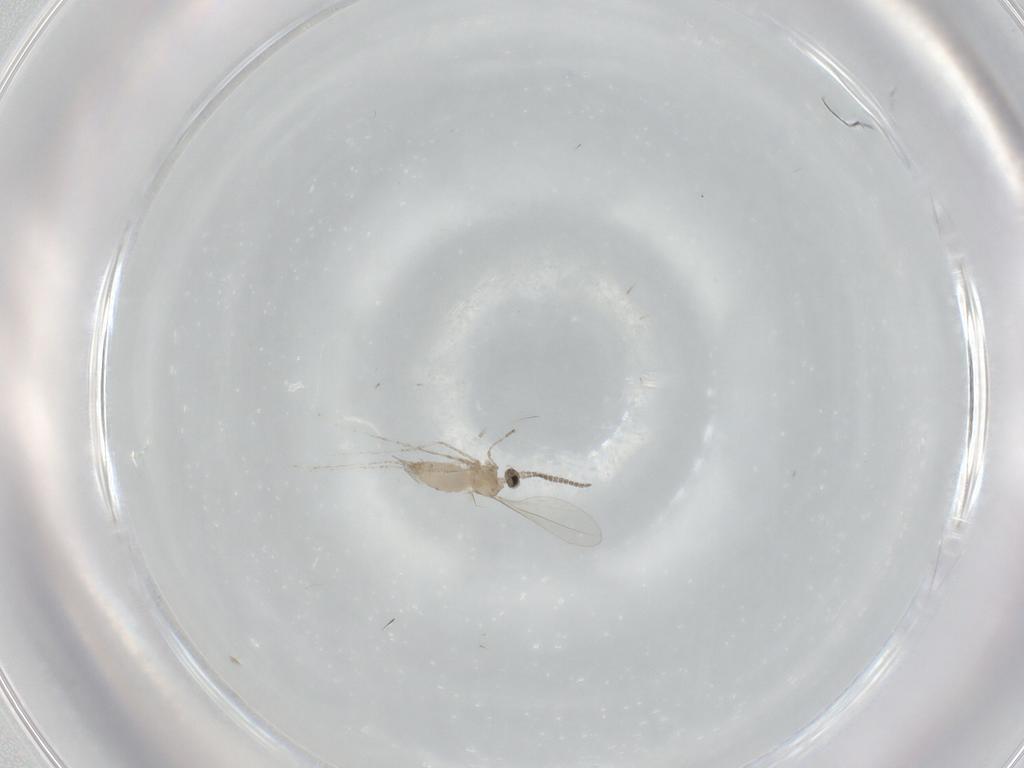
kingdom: Animalia
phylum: Arthropoda
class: Insecta
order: Diptera
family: Cecidomyiidae
